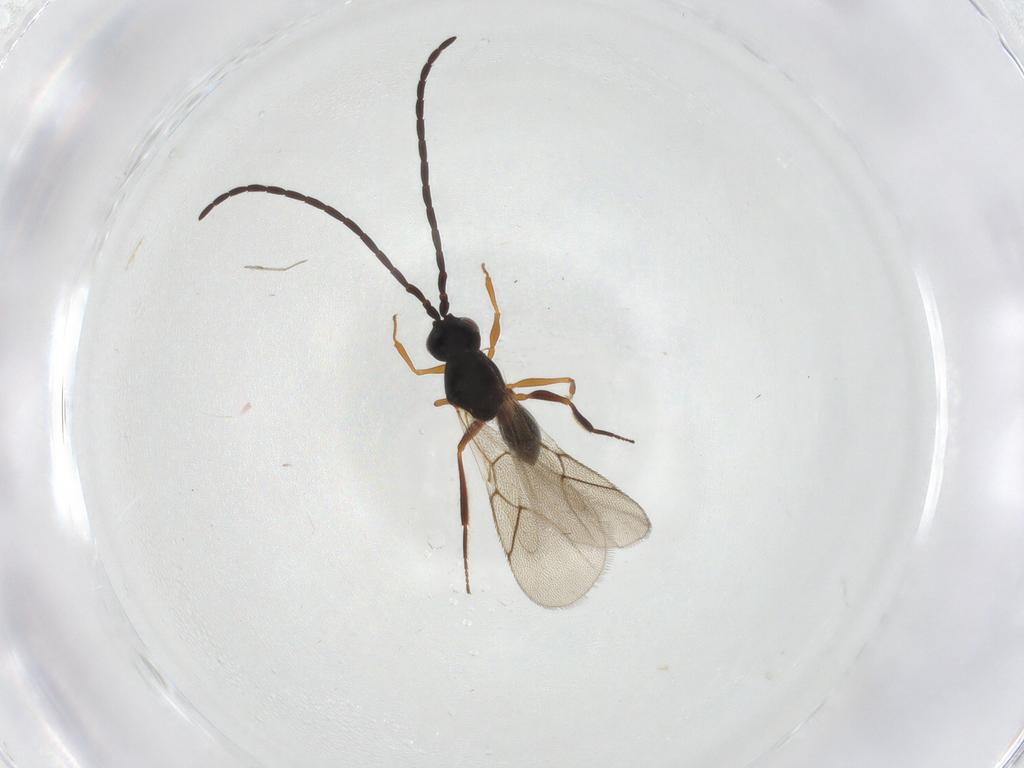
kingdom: Animalia
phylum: Arthropoda
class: Insecta
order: Hymenoptera
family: Figitidae
